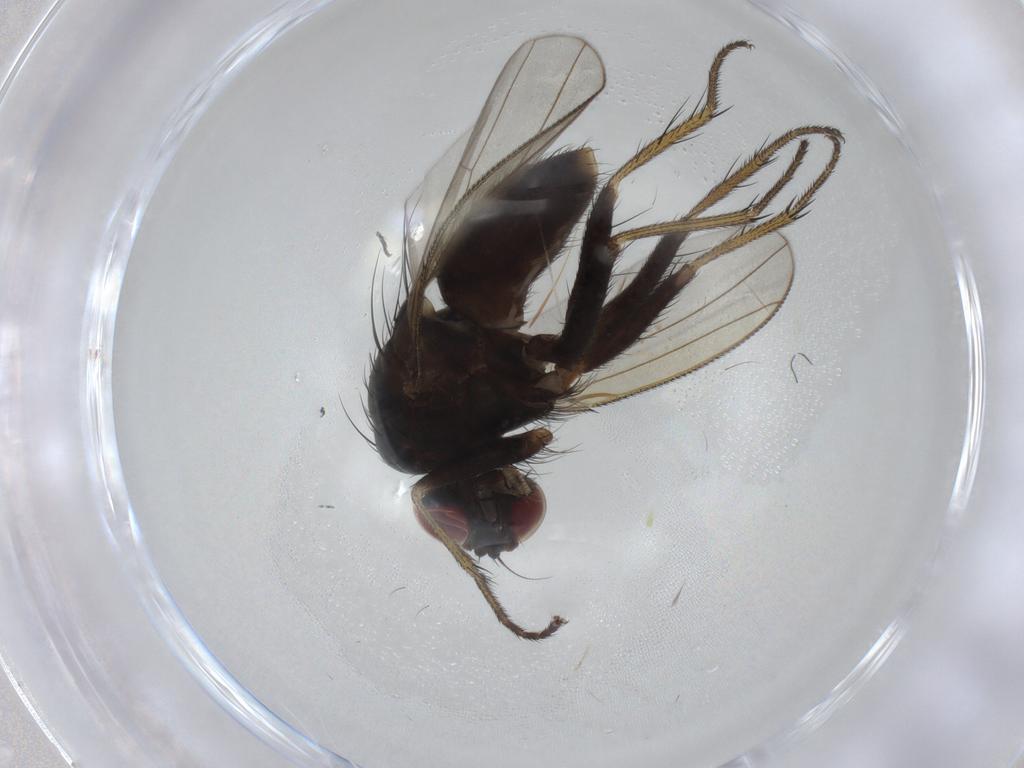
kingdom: Animalia
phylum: Arthropoda
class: Insecta
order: Diptera
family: Muscidae
